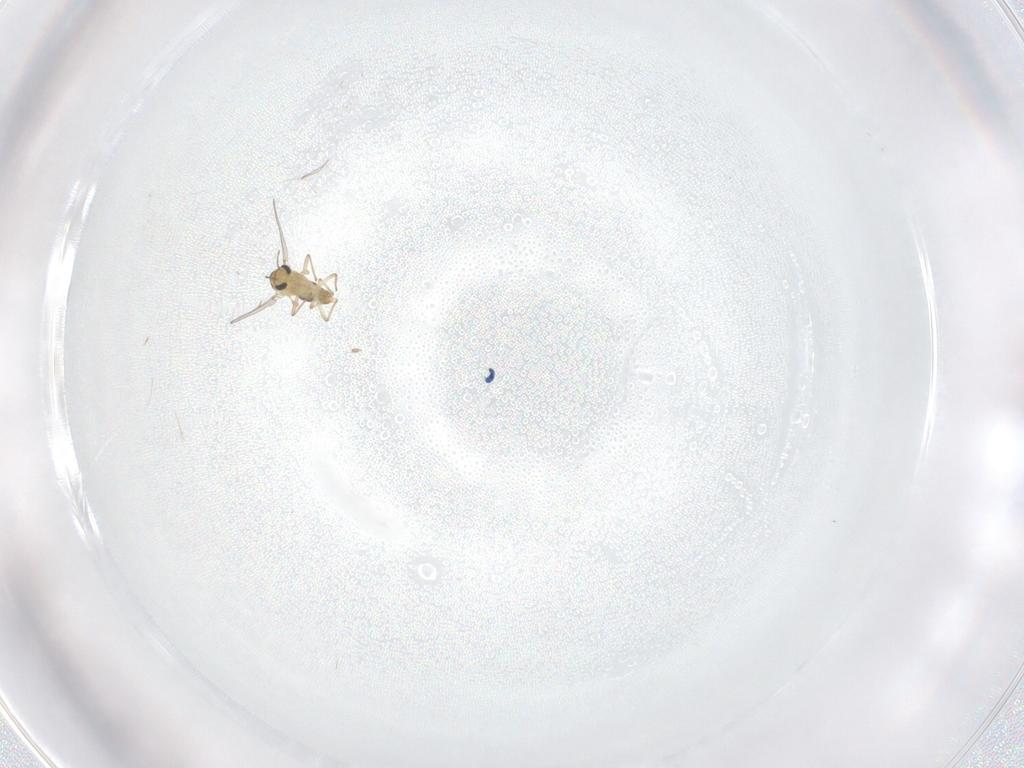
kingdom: Animalia
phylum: Arthropoda
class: Insecta
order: Diptera
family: Chironomidae
